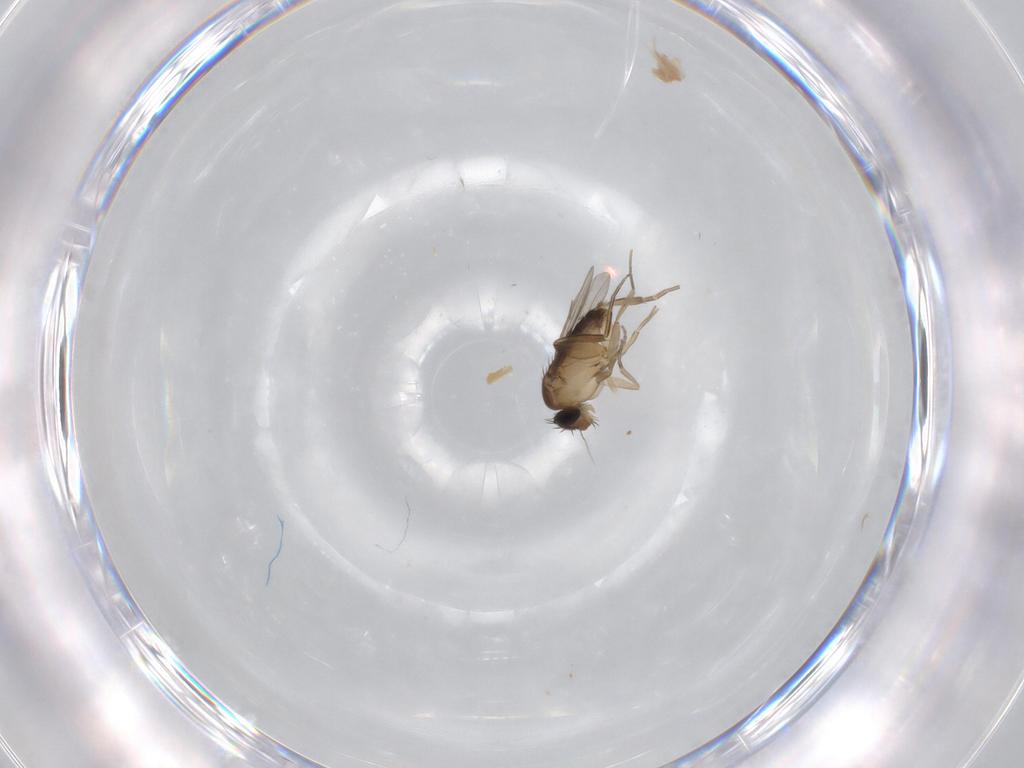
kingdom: Animalia
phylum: Arthropoda
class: Insecta
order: Diptera
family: Phoridae
